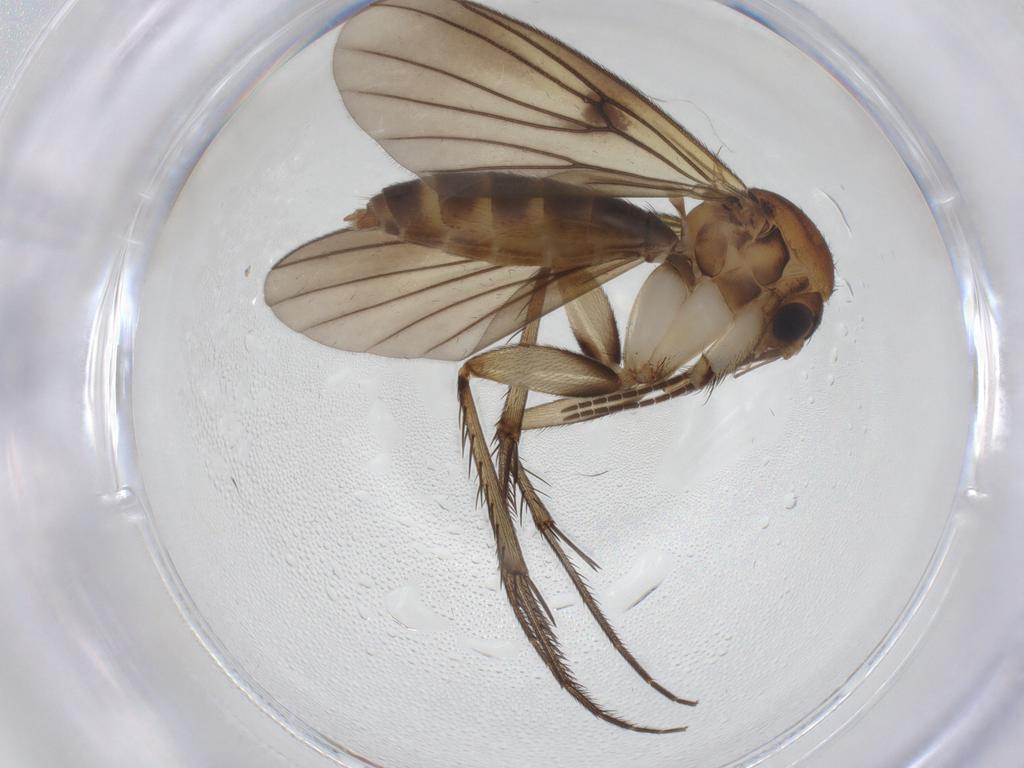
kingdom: Animalia
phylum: Arthropoda
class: Insecta
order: Diptera
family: Mycetophilidae
